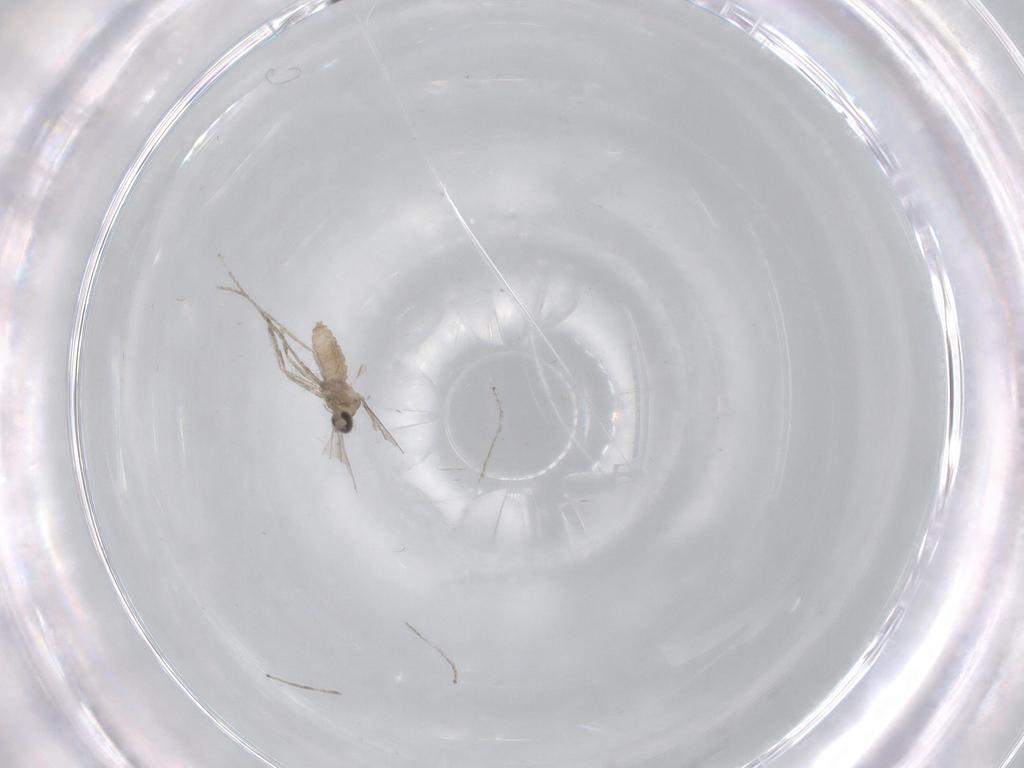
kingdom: Animalia
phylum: Arthropoda
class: Insecta
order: Diptera
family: Cecidomyiidae
